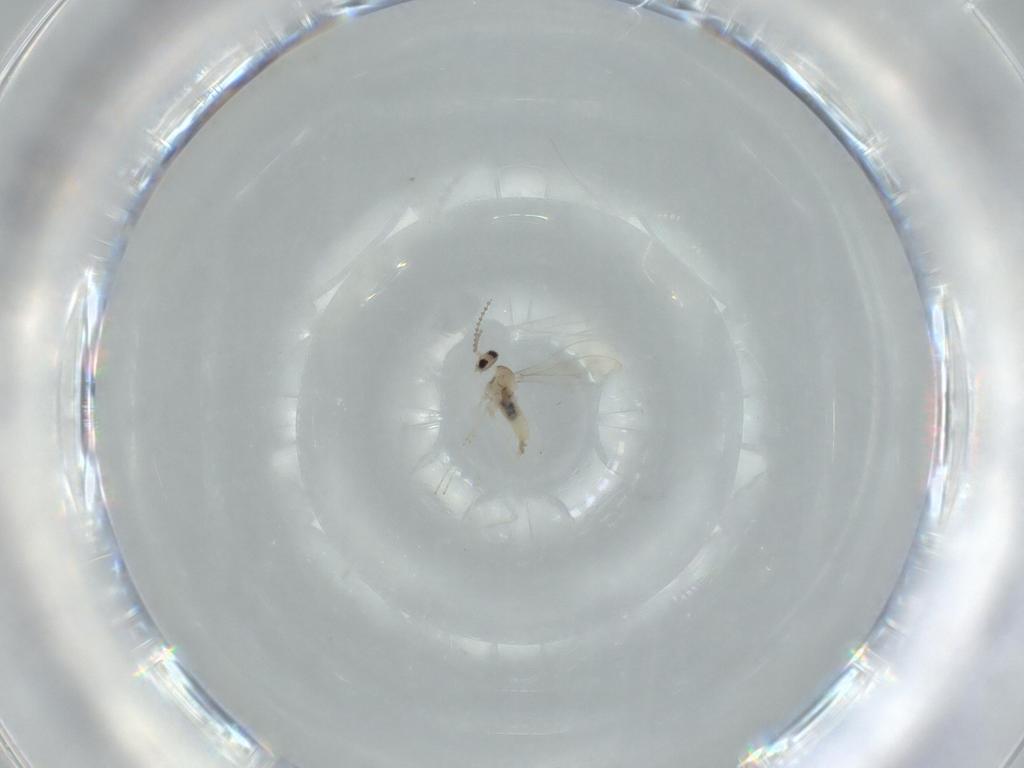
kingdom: Animalia
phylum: Arthropoda
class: Insecta
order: Diptera
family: Cecidomyiidae
